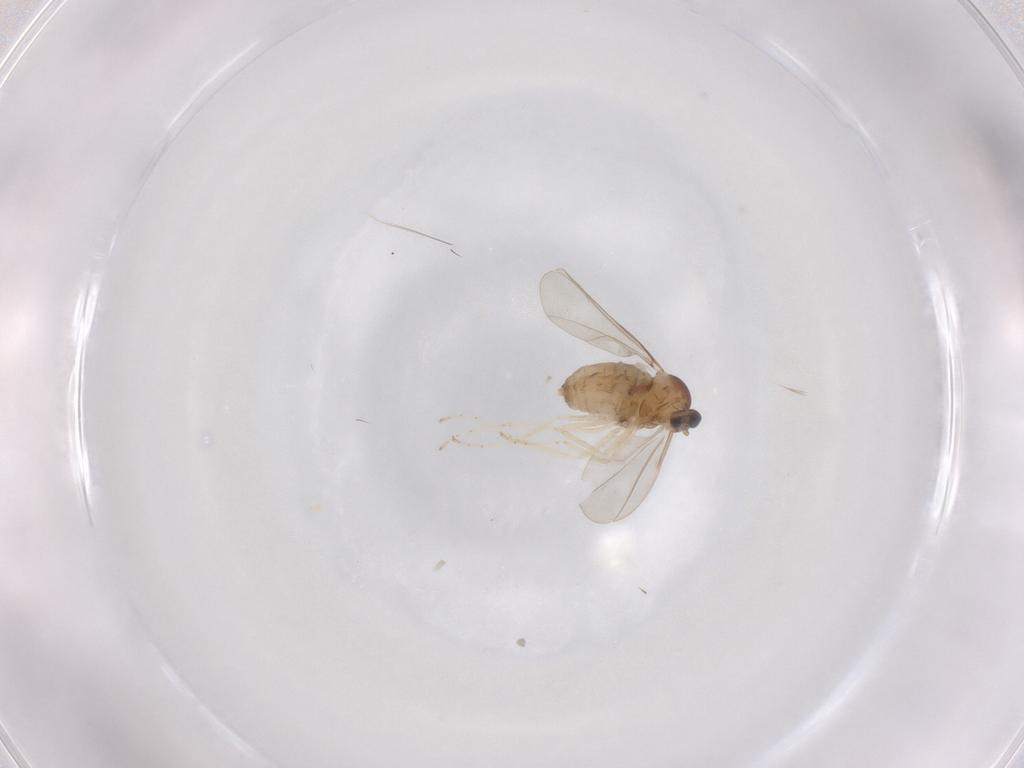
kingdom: Animalia
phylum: Arthropoda
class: Insecta
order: Diptera
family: Cecidomyiidae
